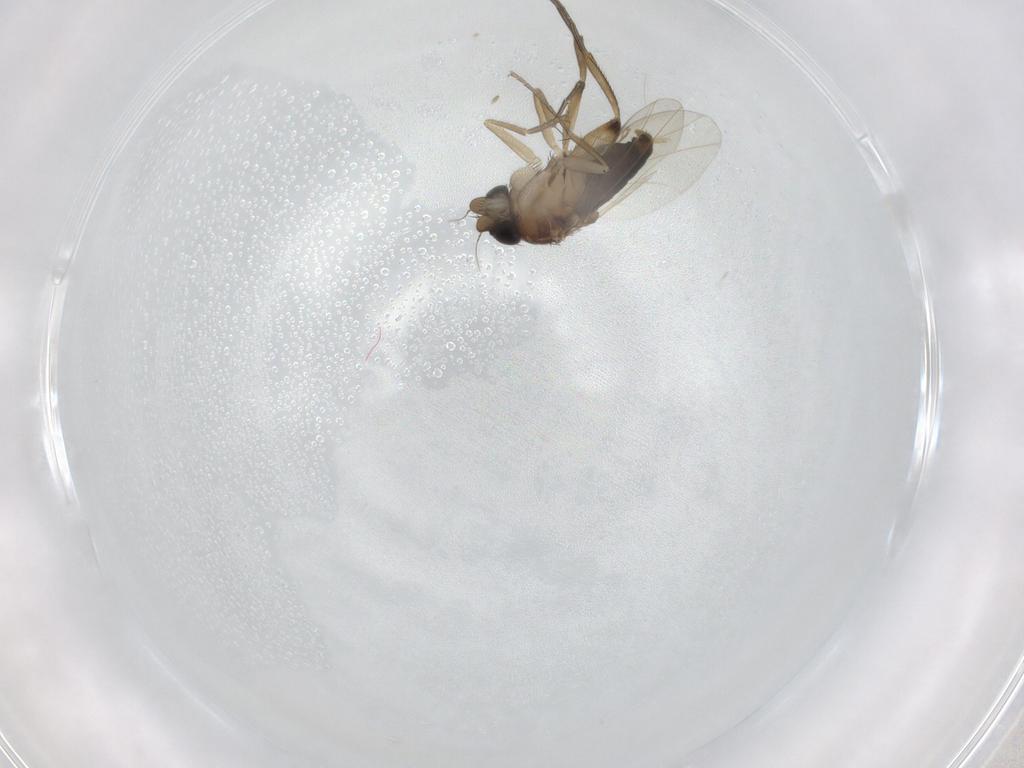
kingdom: Animalia
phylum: Arthropoda
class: Insecta
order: Diptera
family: Phoridae
